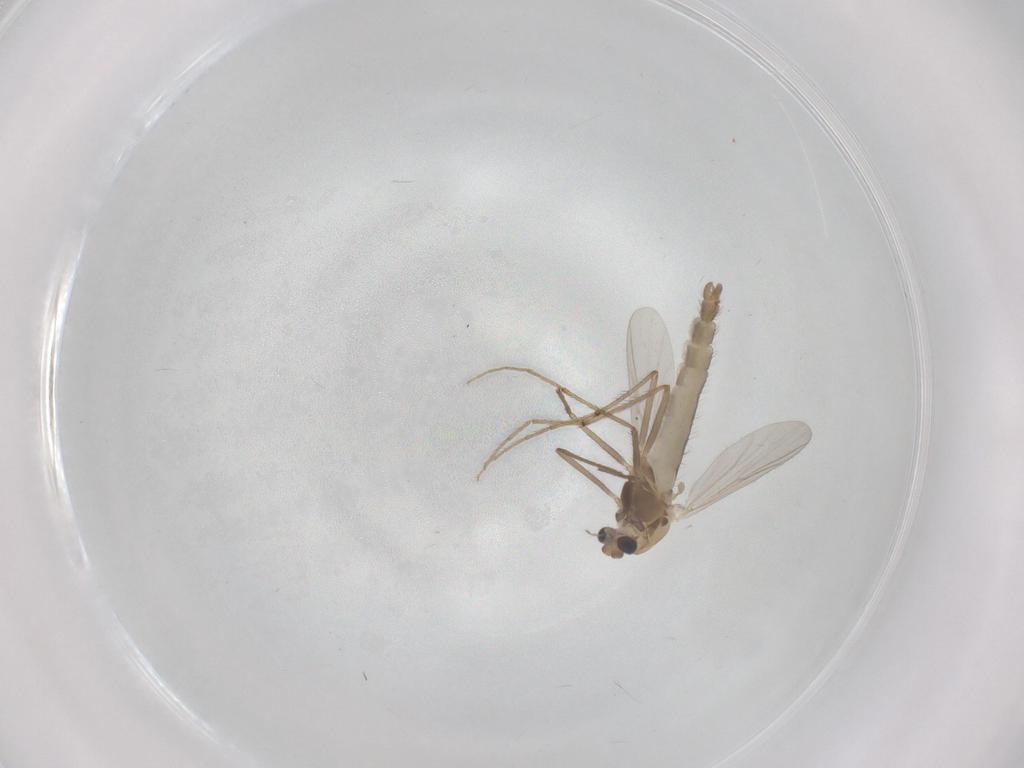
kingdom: Animalia
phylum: Arthropoda
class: Insecta
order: Diptera
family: Chironomidae
